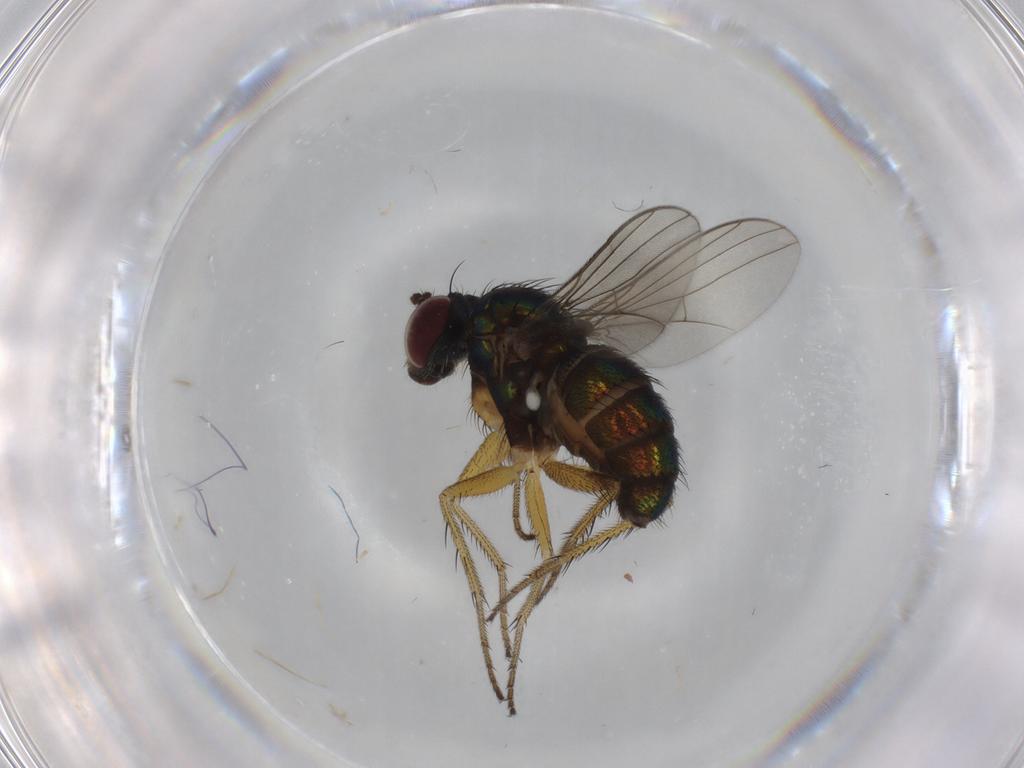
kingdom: Animalia
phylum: Arthropoda
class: Insecta
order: Diptera
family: Dolichopodidae
